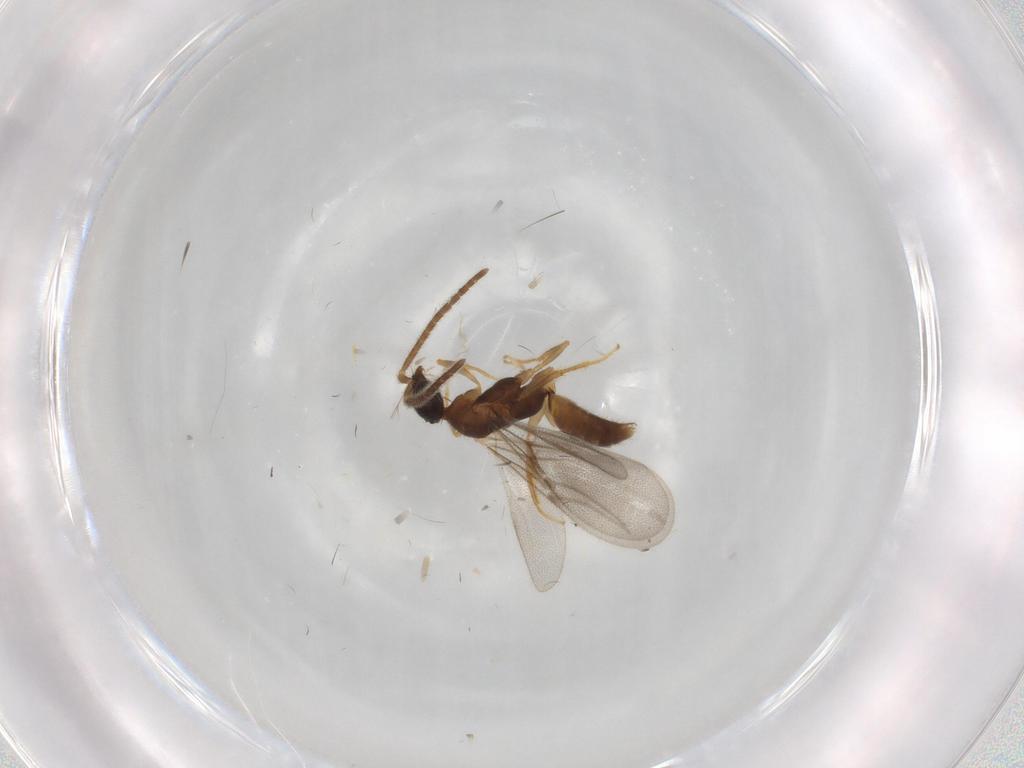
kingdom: Animalia
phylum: Arthropoda
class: Insecta
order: Hymenoptera
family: Bethylidae
